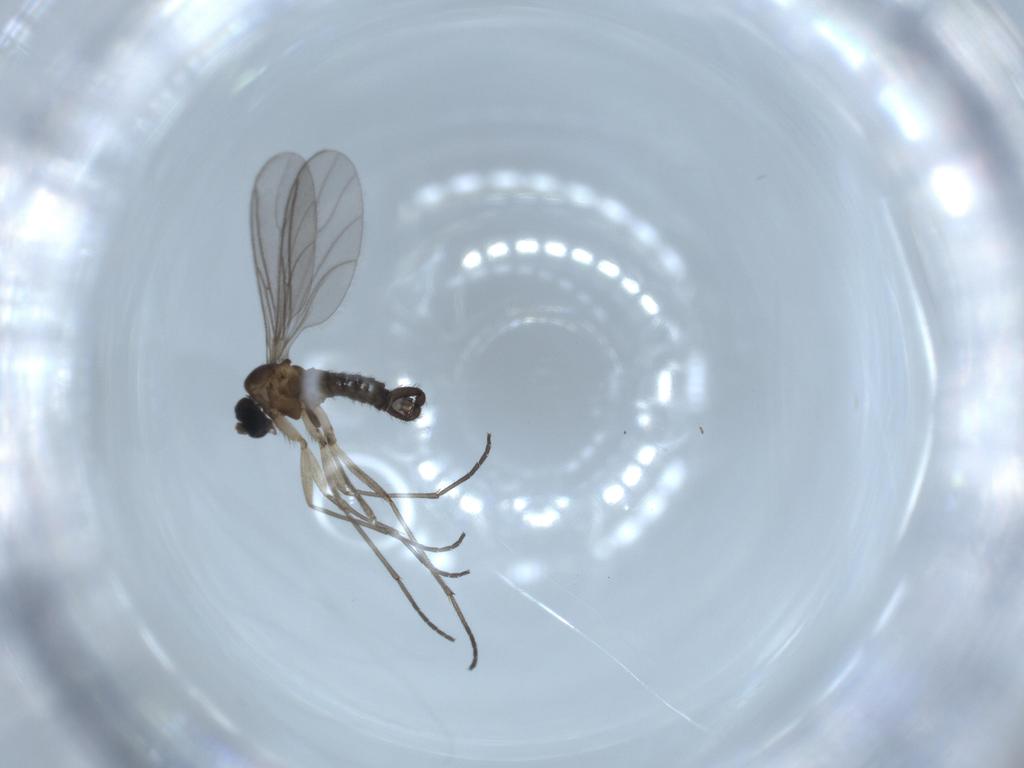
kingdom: Animalia
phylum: Arthropoda
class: Insecta
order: Diptera
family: Sciaridae
